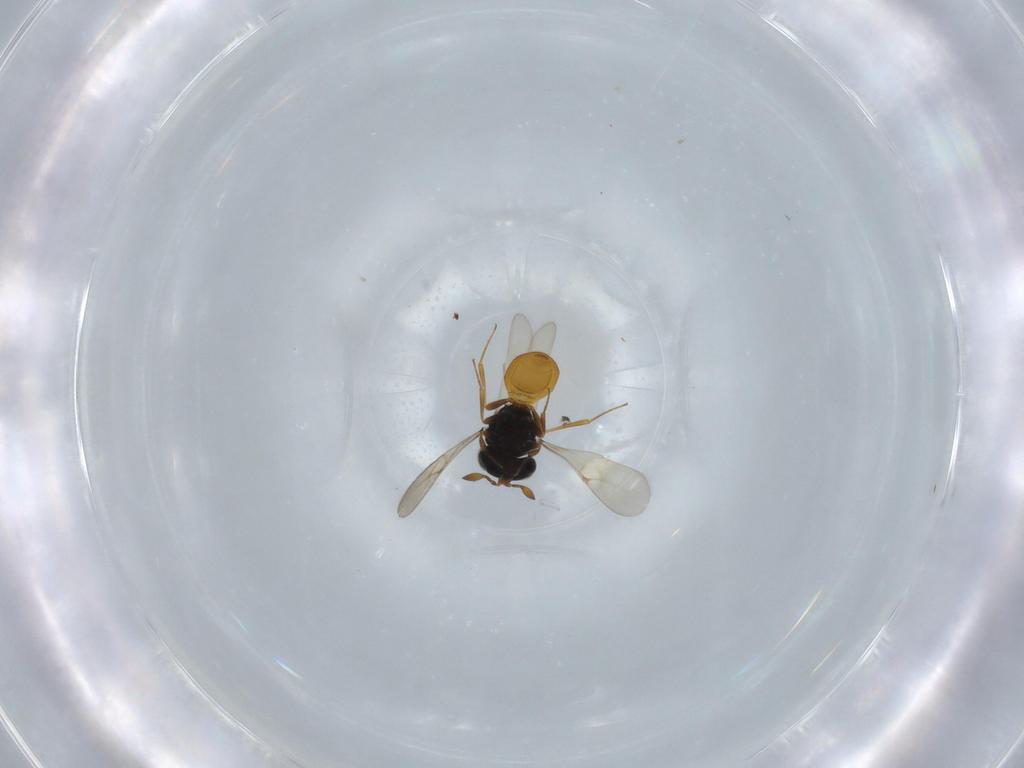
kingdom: Animalia
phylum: Arthropoda
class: Insecta
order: Hymenoptera
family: Scelionidae
